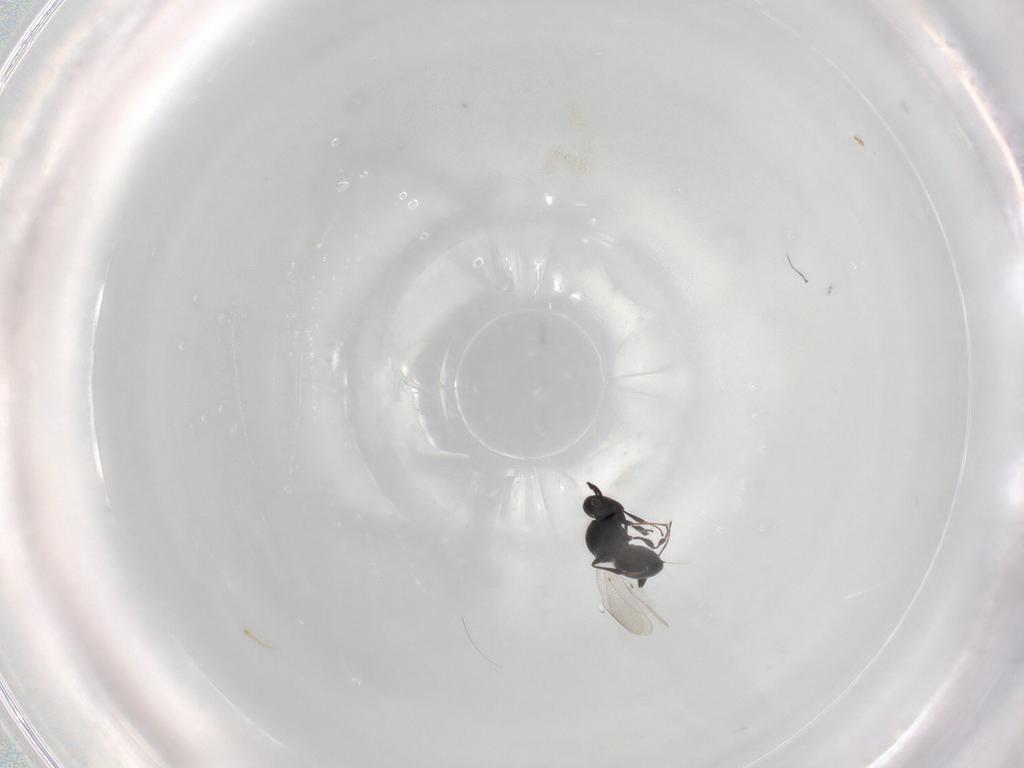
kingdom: Animalia
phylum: Arthropoda
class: Insecta
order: Hymenoptera
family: Platygastridae
